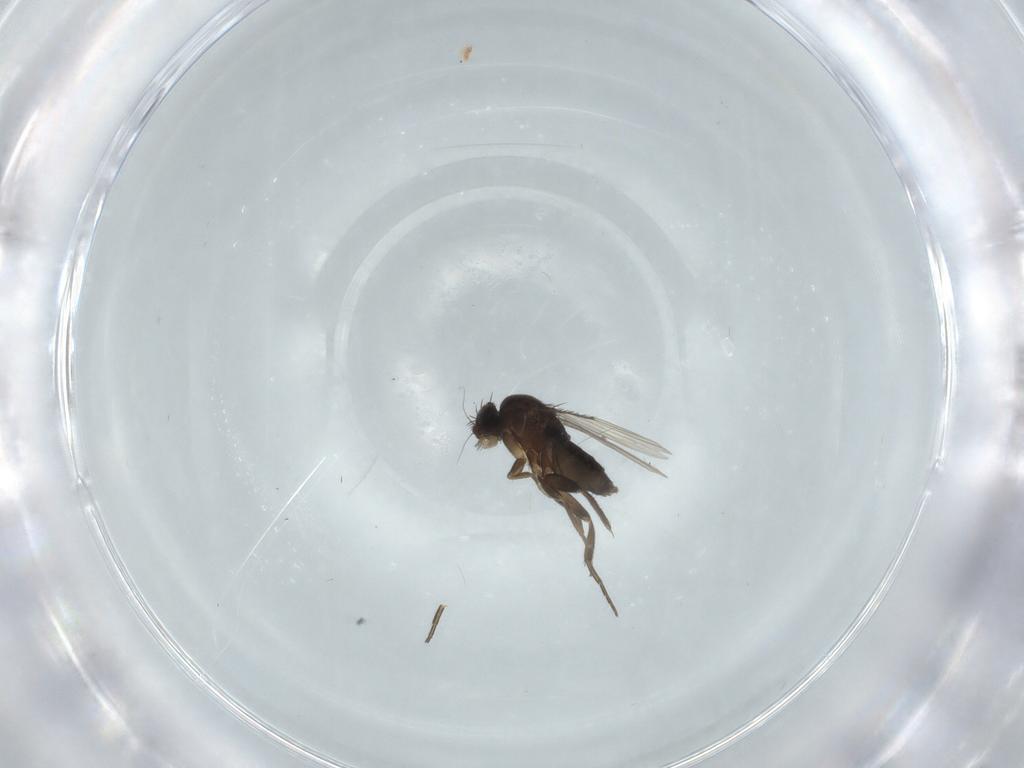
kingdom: Animalia
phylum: Arthropoda
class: Insecta
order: Diptera
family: Phoridae
